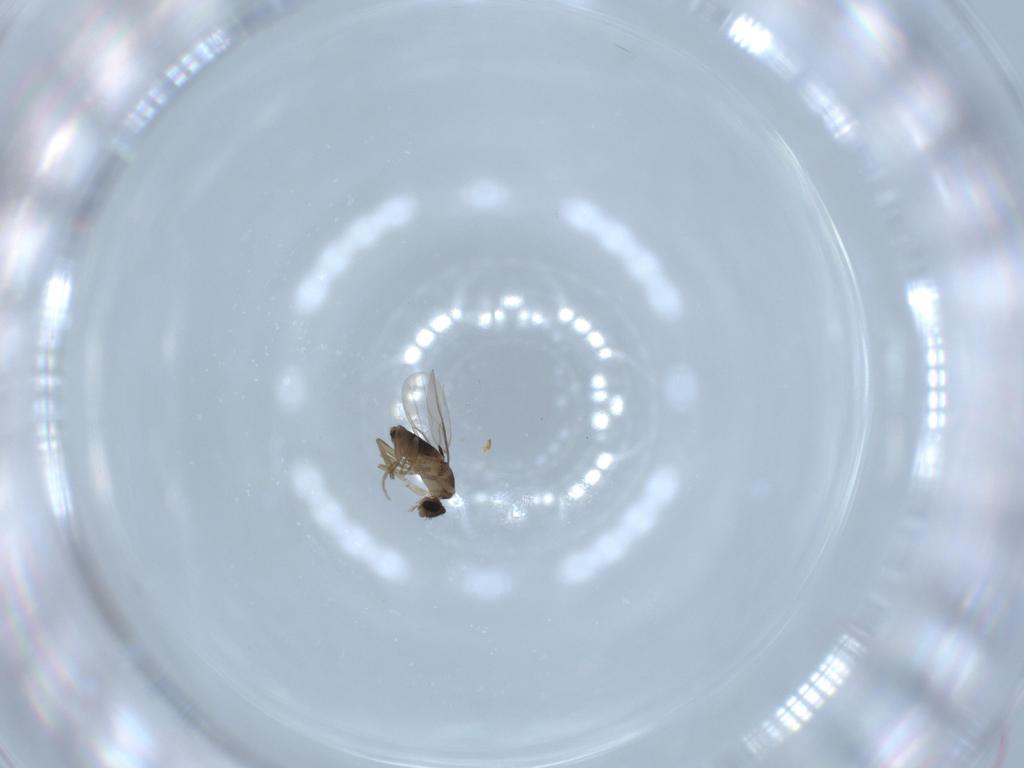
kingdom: Animalia
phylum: Arthropoda
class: Insecta
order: Diptera
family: Phoridae
